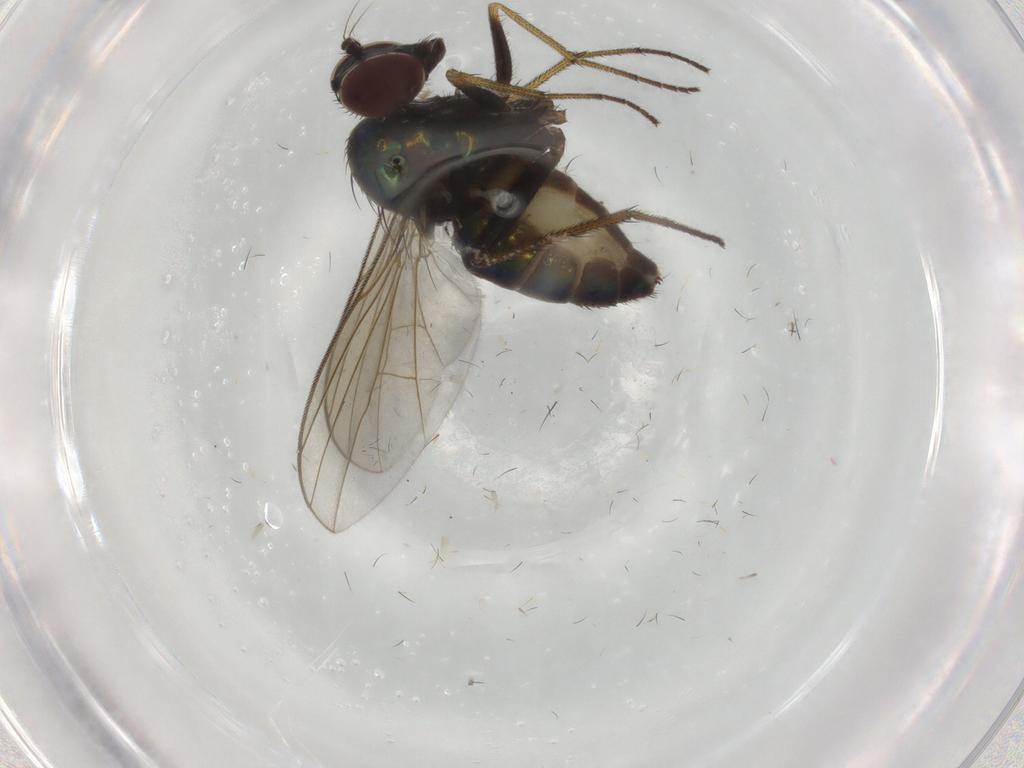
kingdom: Animalia
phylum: Arthropoda
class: Insecta
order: Diptera
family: Dolichopodidae
